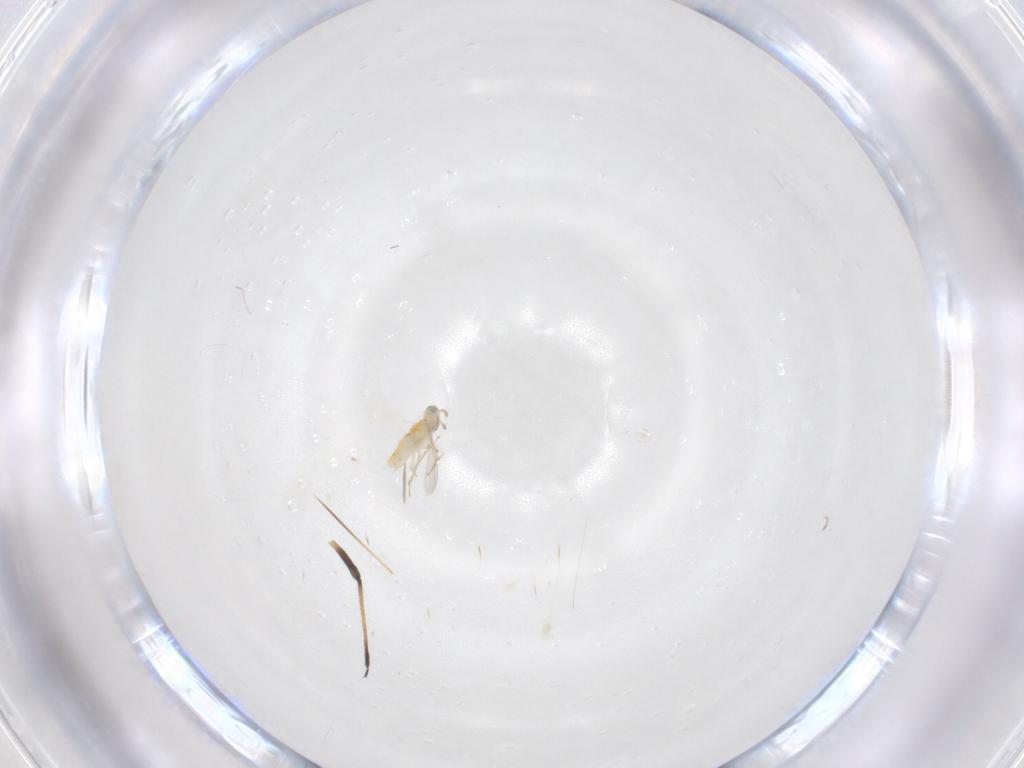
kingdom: Animalia
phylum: Arthropoda
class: Insecta
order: Hymenoptera
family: Aphelinidae
